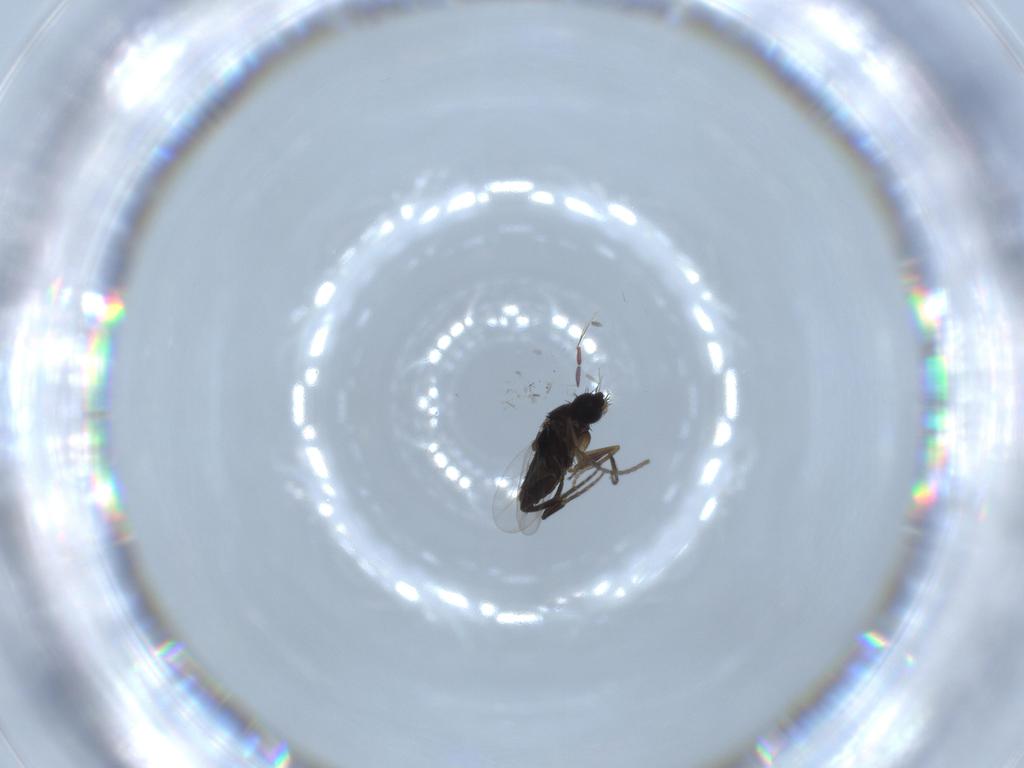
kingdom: Animalia
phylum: Arthropoda
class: Insecta
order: Diptera
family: Phoridae
